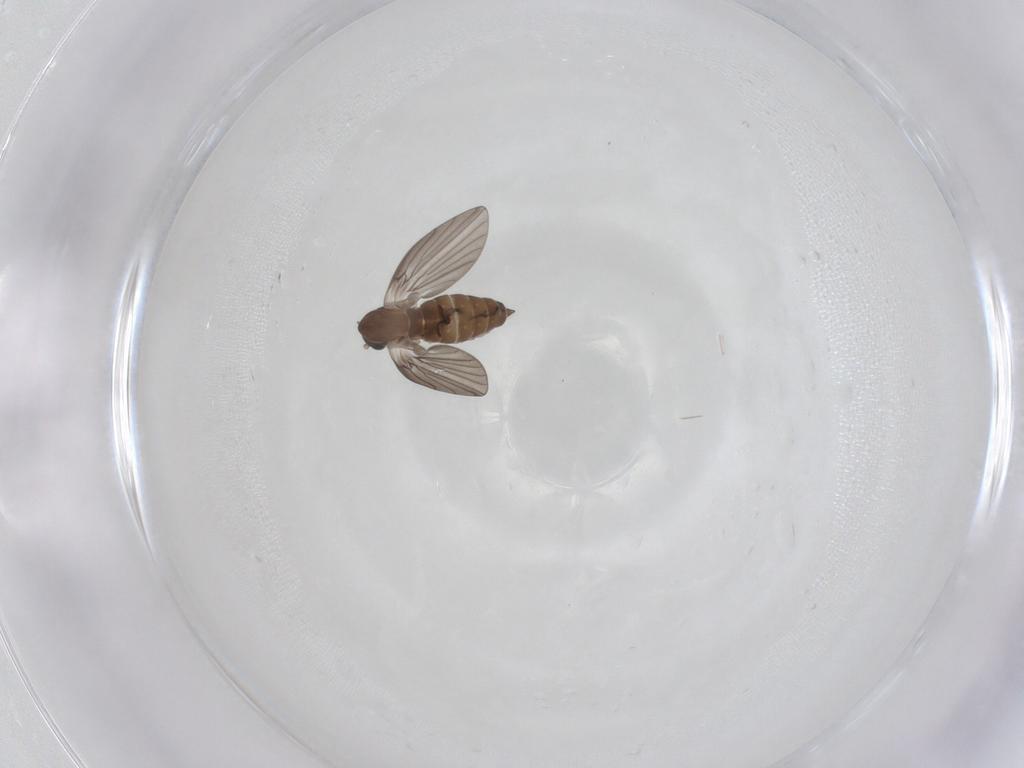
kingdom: Animalia
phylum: Arthropoda
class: Insecta
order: Diptera
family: Psychodidae
